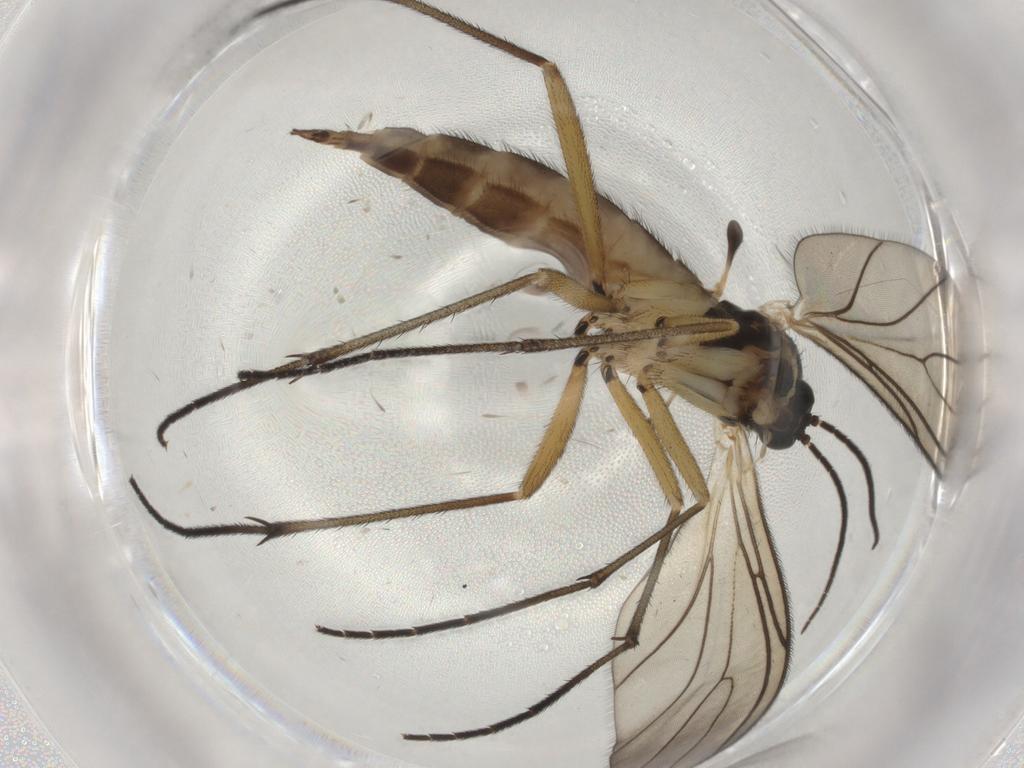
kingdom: Animalia
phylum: Arthropoda
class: Insecta
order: Diptera
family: Sciaridae
